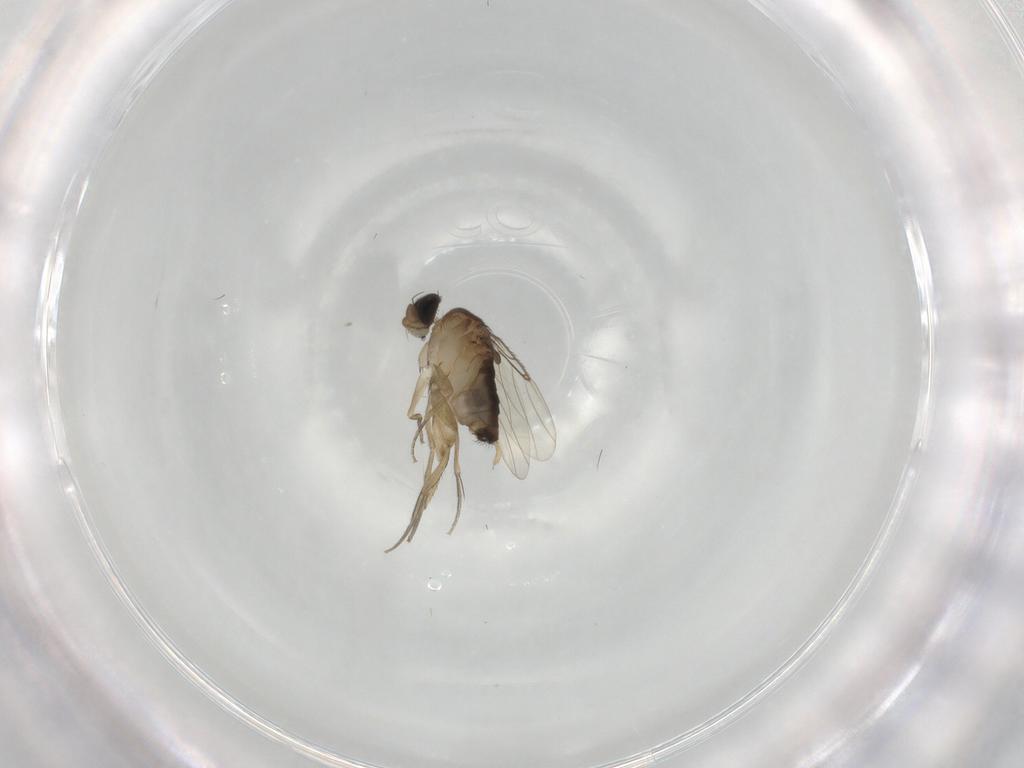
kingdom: Animalia
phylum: Arthropoda
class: Insecta
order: Diptera
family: Phoridae
